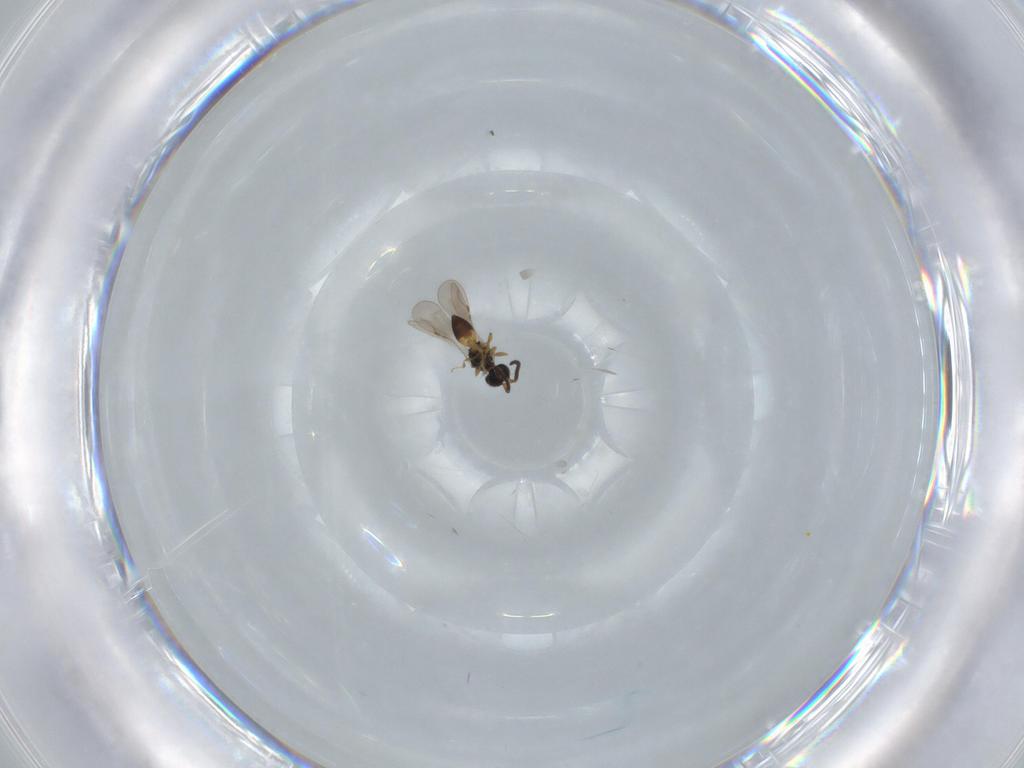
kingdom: Animalia
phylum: Arthropoda
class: Insecta
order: Hymenoptera
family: Crabronidae
